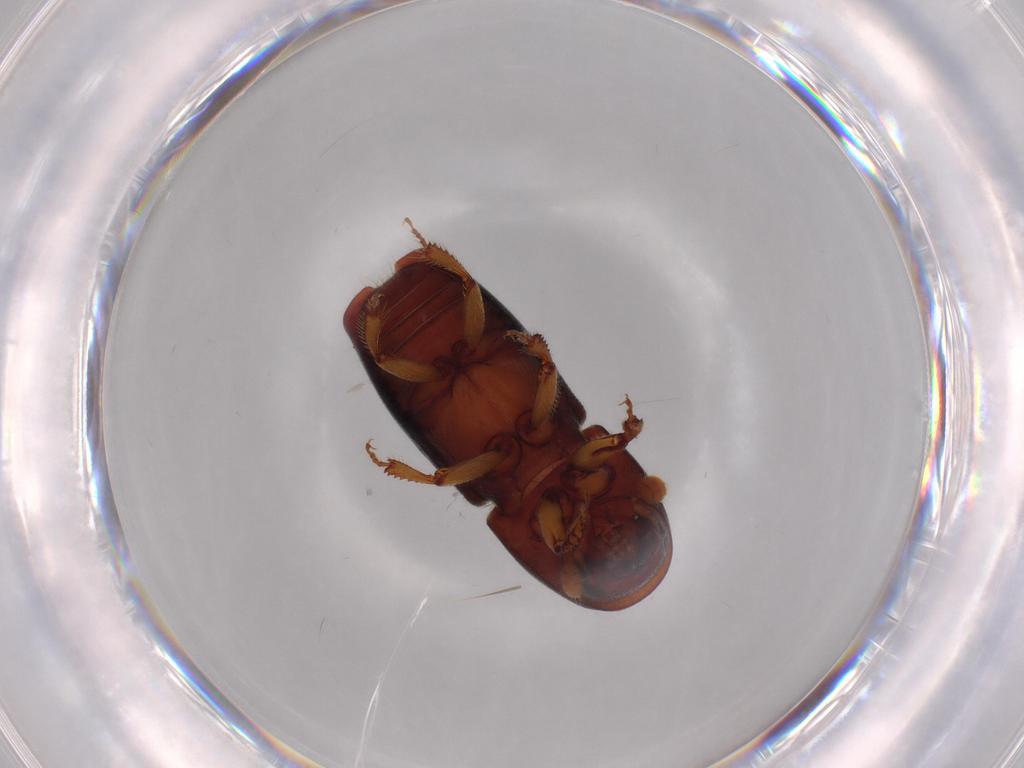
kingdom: Animalia
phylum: Arthropoda
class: Insecta
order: Coleoptera
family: Curculionidae
